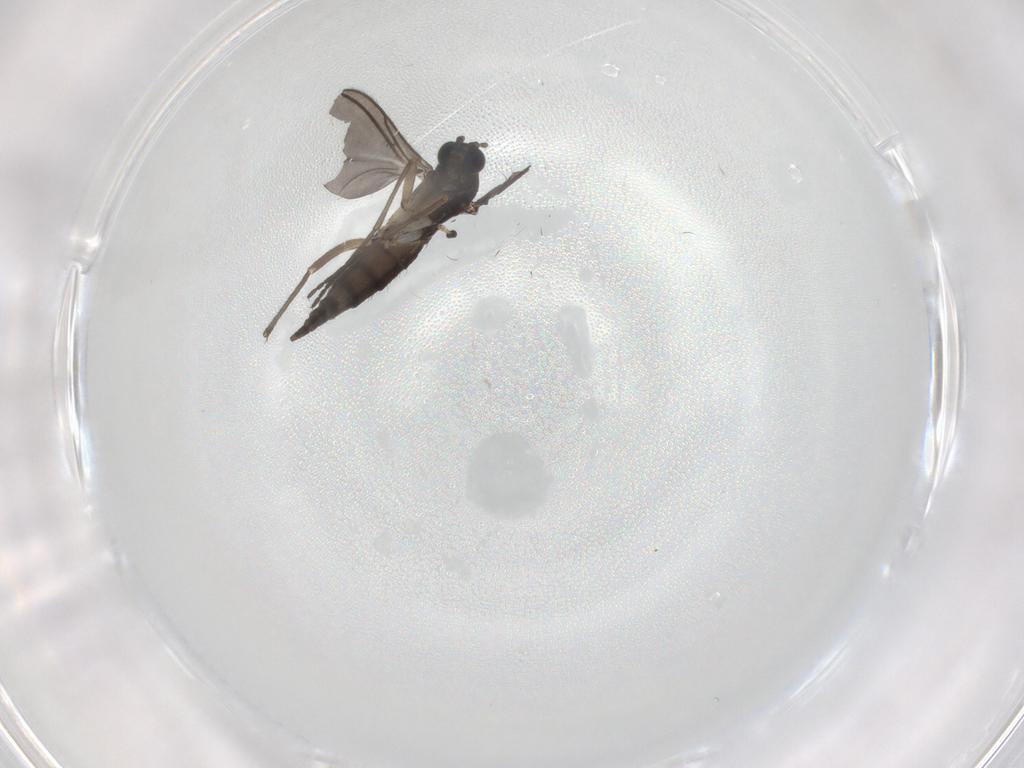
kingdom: Animalia
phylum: Arthropoda
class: Insecta
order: Diptera
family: Sciaridae
